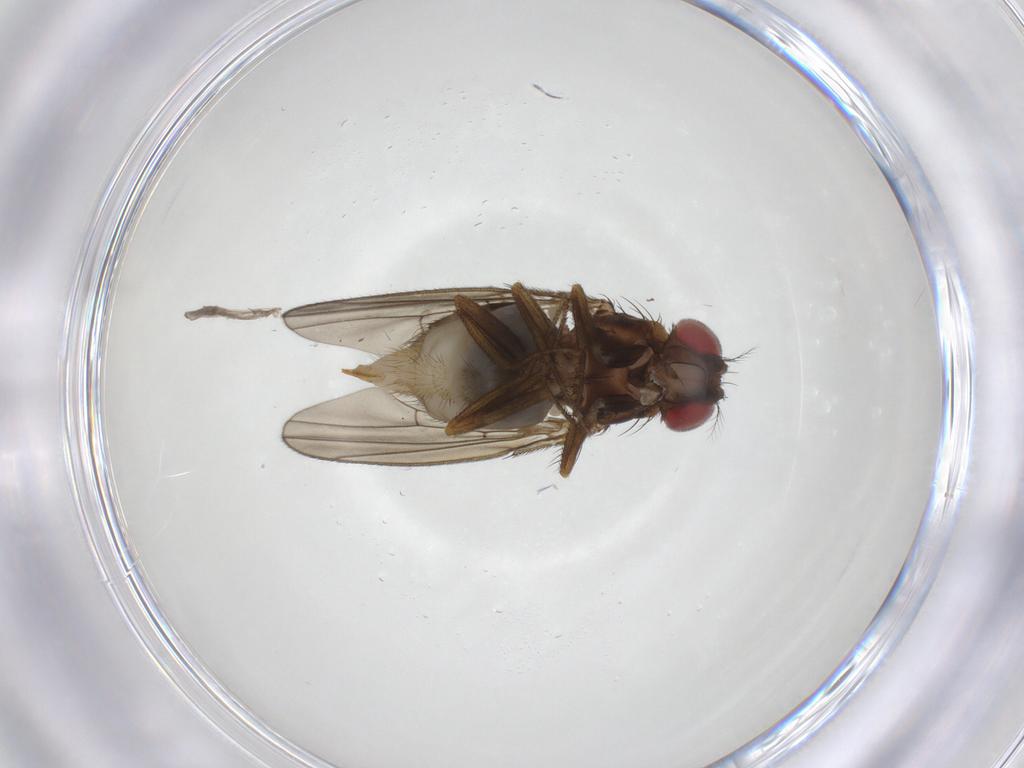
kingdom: Animalia
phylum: Arthropoda
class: Insecta
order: Diptera
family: Drosophilidae
